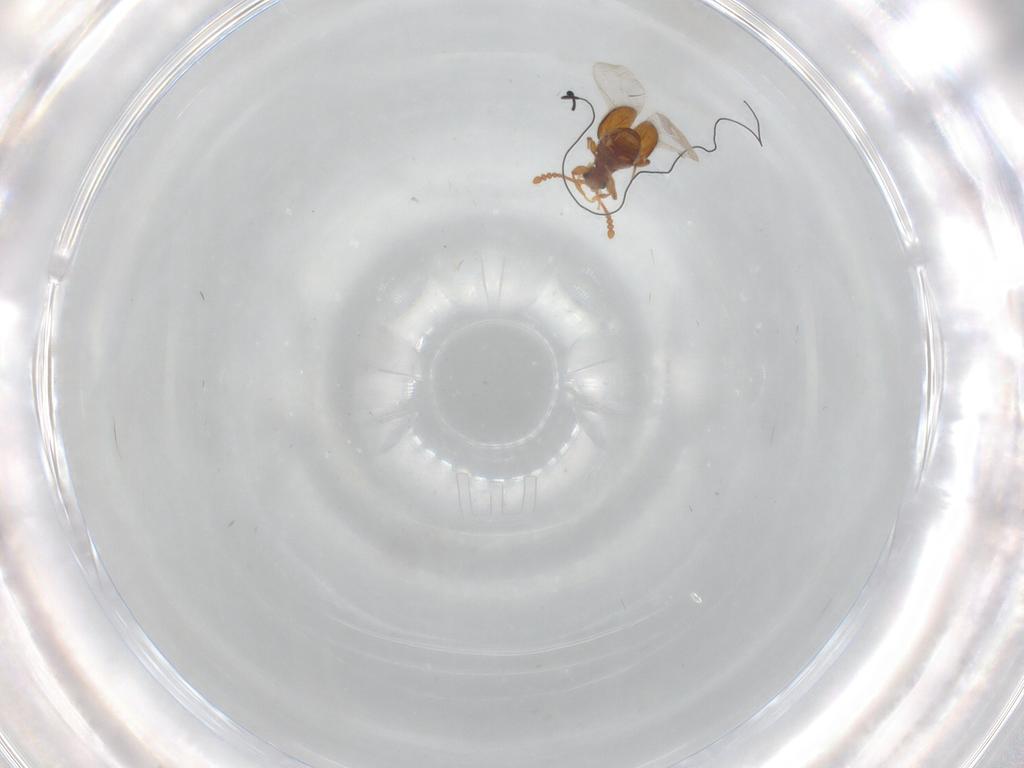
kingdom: Animalia
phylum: Arthropoda
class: Insecta
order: Coleoptera
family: Staphylinidae
